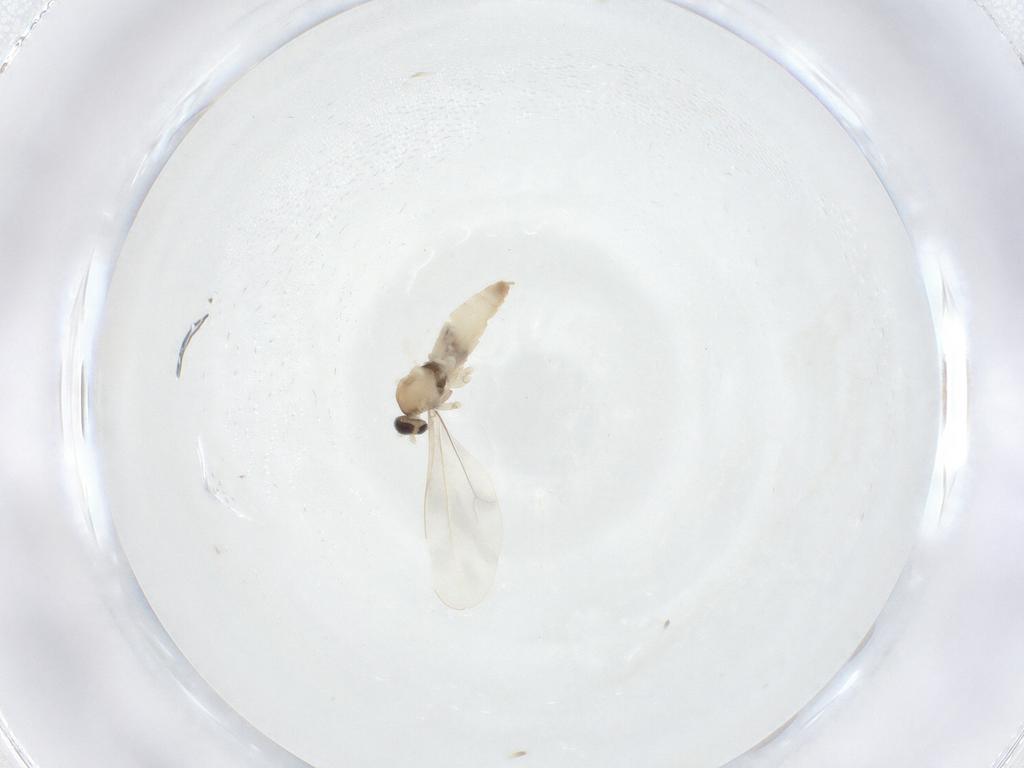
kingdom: Animalia
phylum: Arthropoda
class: Insecta
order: Diptera
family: Cecidomyiidae
